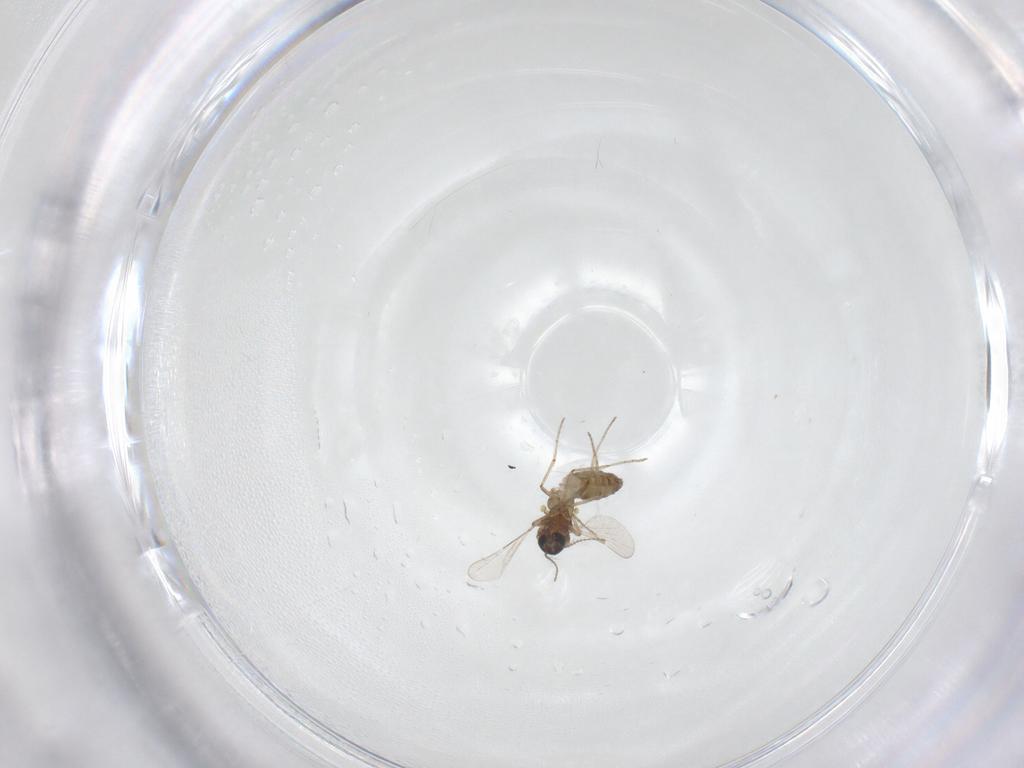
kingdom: Animalia
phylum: Arthropoda
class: Insecta
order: Diptera
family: Ceratopogonidae
